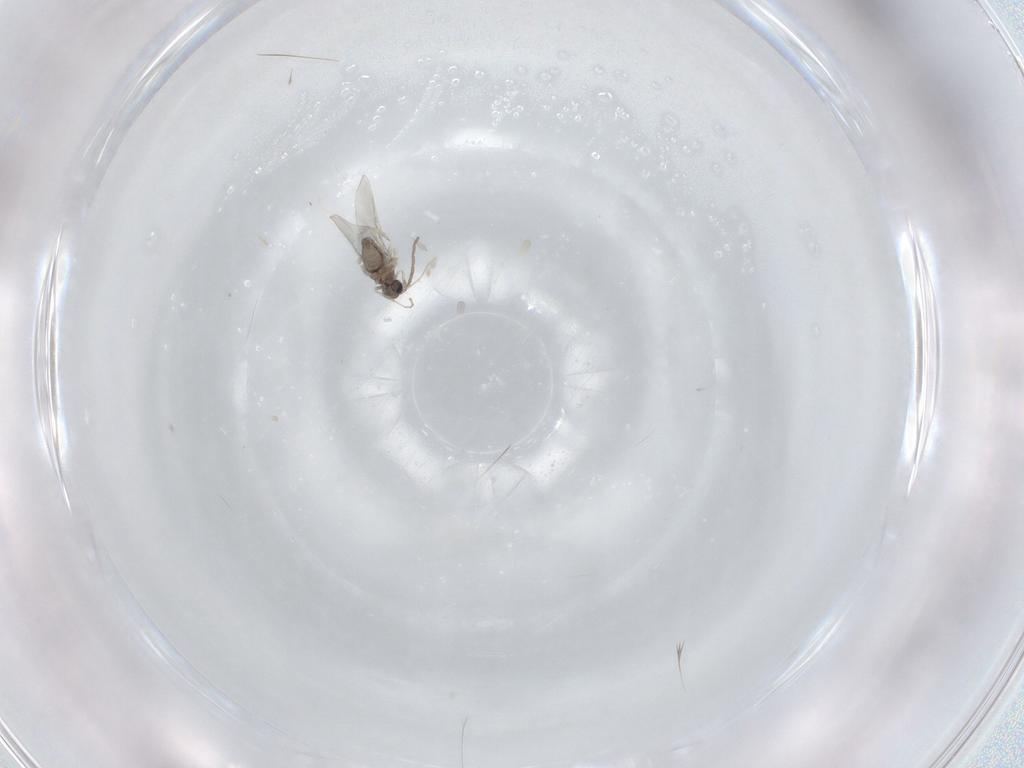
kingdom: Animalia
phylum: Arthropoda
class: Insecta
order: Diptera
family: Cecidomyiidae
